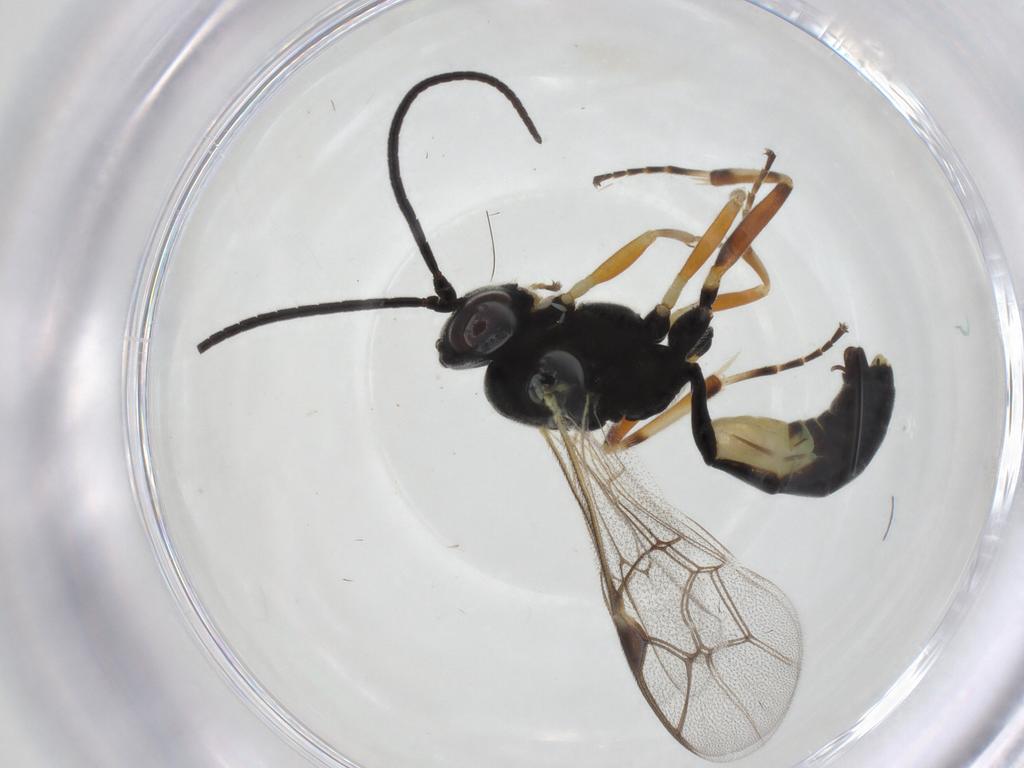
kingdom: Animalia
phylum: Arthropoda
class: Insecta
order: Hymenoptera
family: Ichneumonidae
